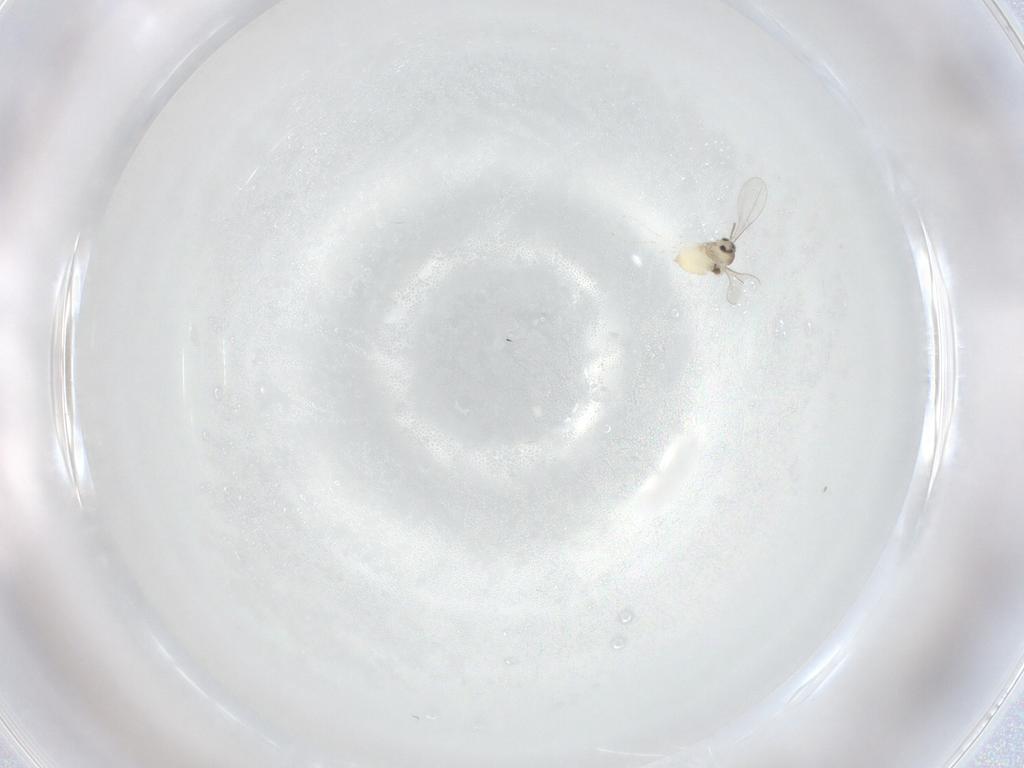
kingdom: Animalia
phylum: Arthropoda
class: Insecta
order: Diptera
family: Cecidomyiidae
